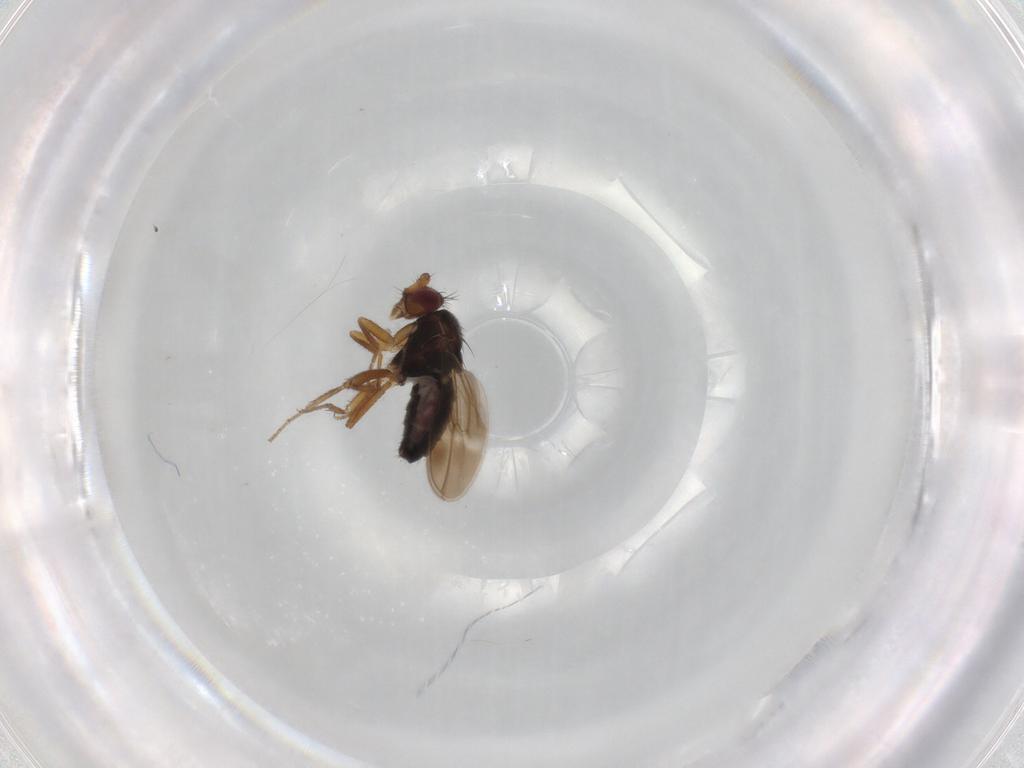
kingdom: Animalia
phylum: Arthropoda
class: Insecta
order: Diptera
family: Sphaeroceridae
